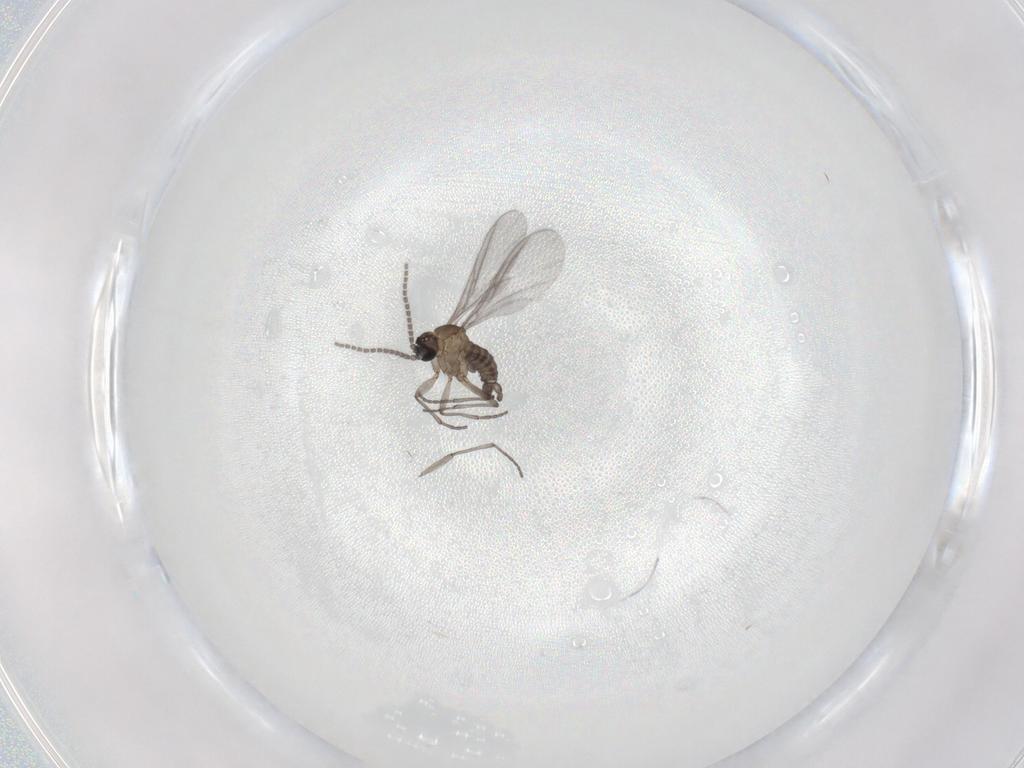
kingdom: Animalia
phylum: Arthropoda
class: Insecta
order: Diptera
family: Sciaridae
